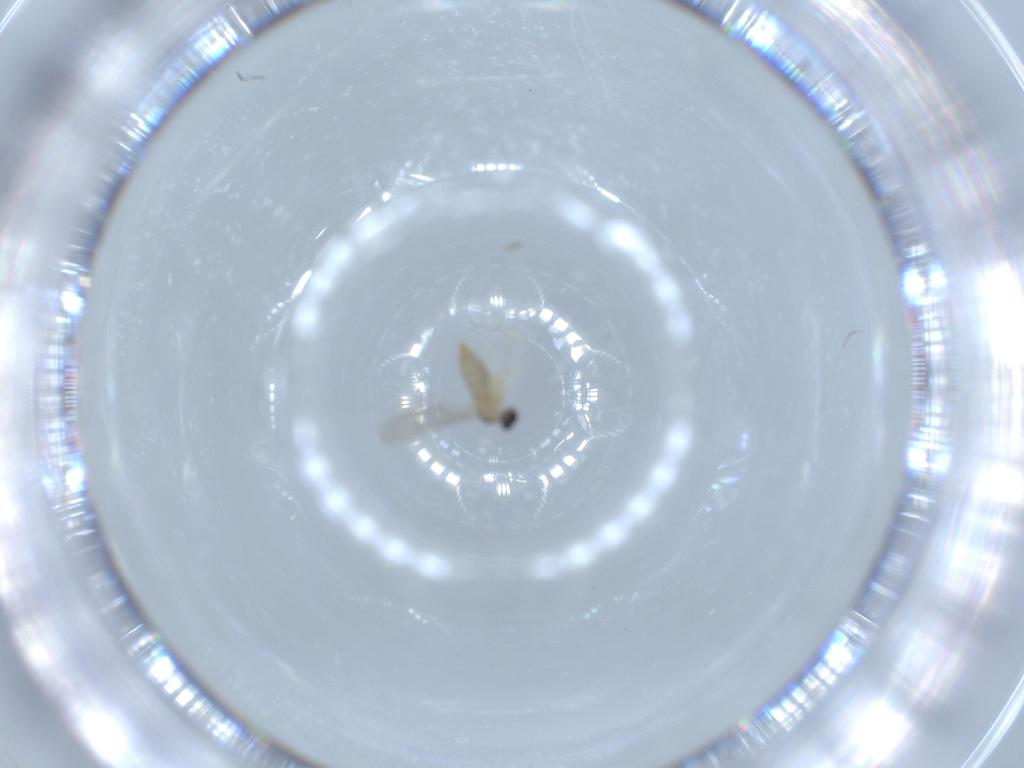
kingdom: Animalia
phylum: Arthropoda
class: Insecta
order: Diptera
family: Cecidomyiidae
